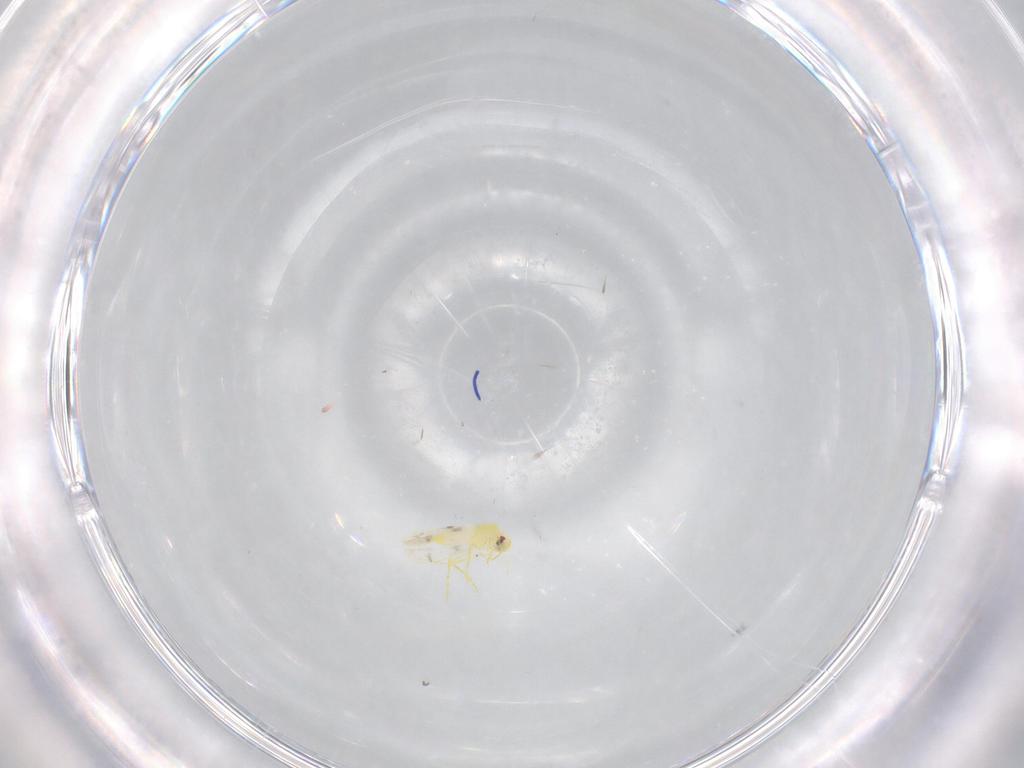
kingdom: Animalia
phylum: Arthropoda
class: Insecta
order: Hemiptera
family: Aleyrodidae
